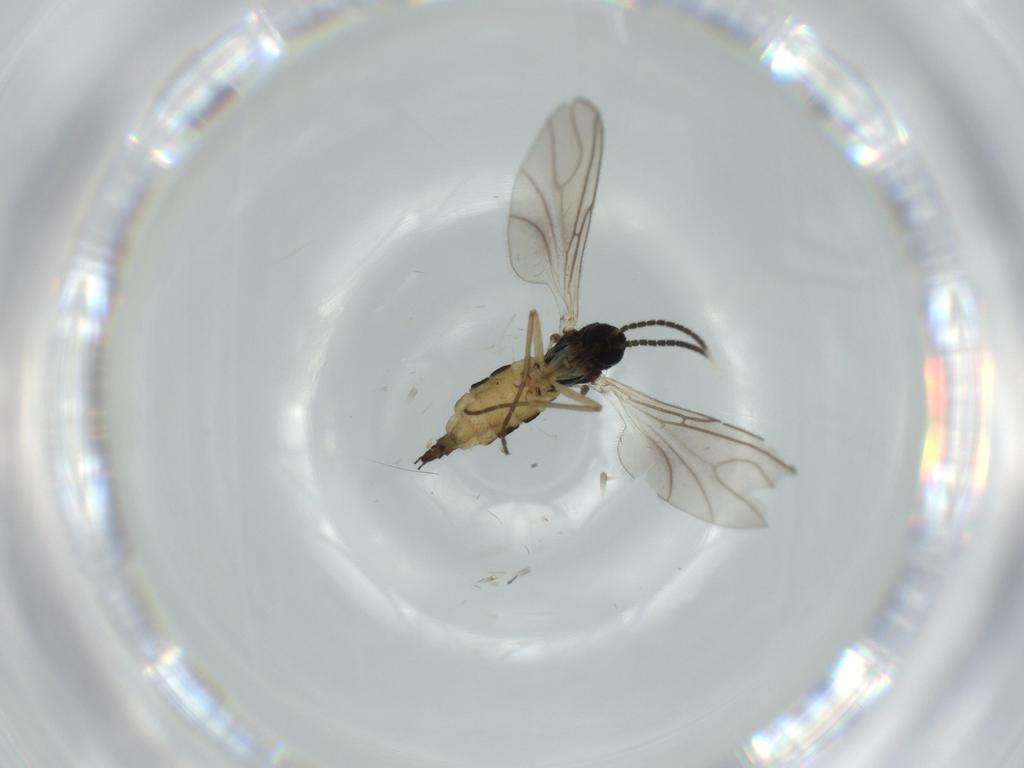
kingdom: Animalia
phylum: Arthropoda
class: Insecta
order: Diptera
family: Sciaridae
